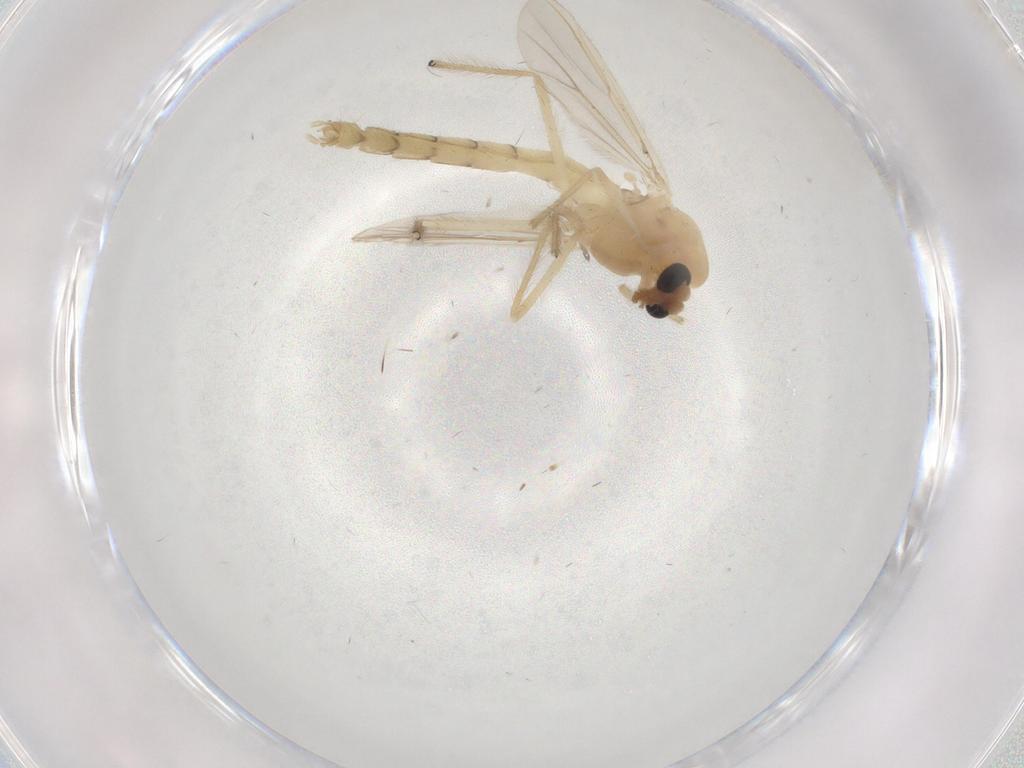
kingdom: Animalia
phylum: Arthropoda
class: Insecta
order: Diptera
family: Chironomidae
